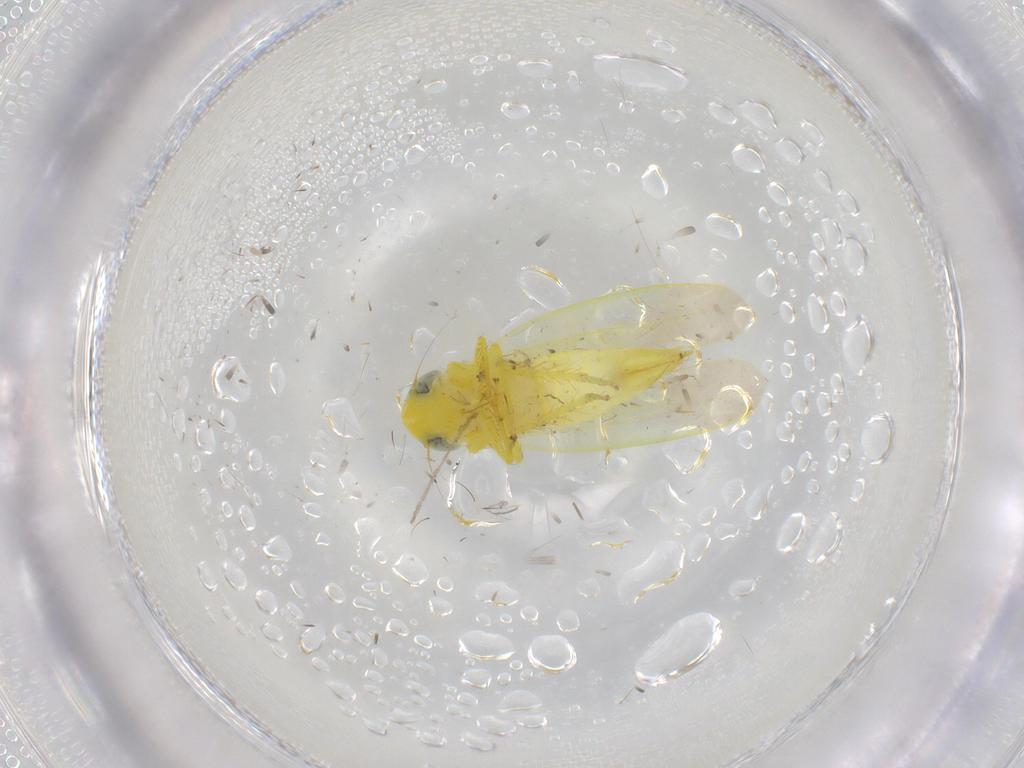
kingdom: Animalia
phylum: Arthropoda
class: Insecta
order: Hemiptera
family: Cicadellidae
